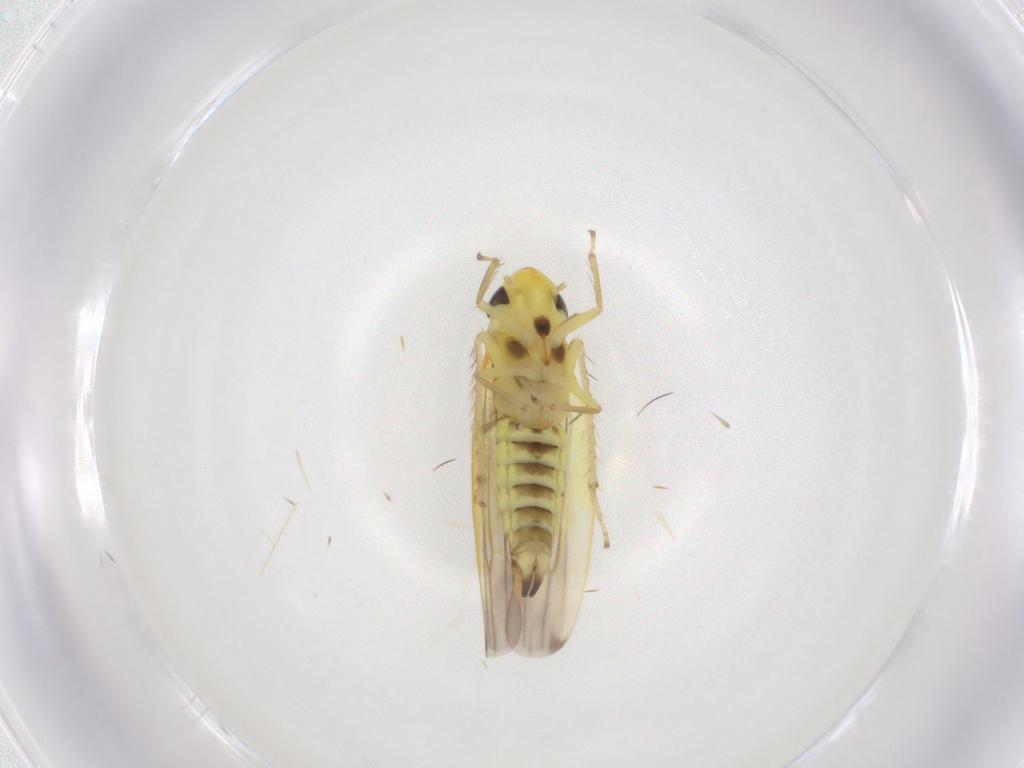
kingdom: Animalia
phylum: Arthropoda
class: Insecta
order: Hemiptera
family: Cicadellidae
